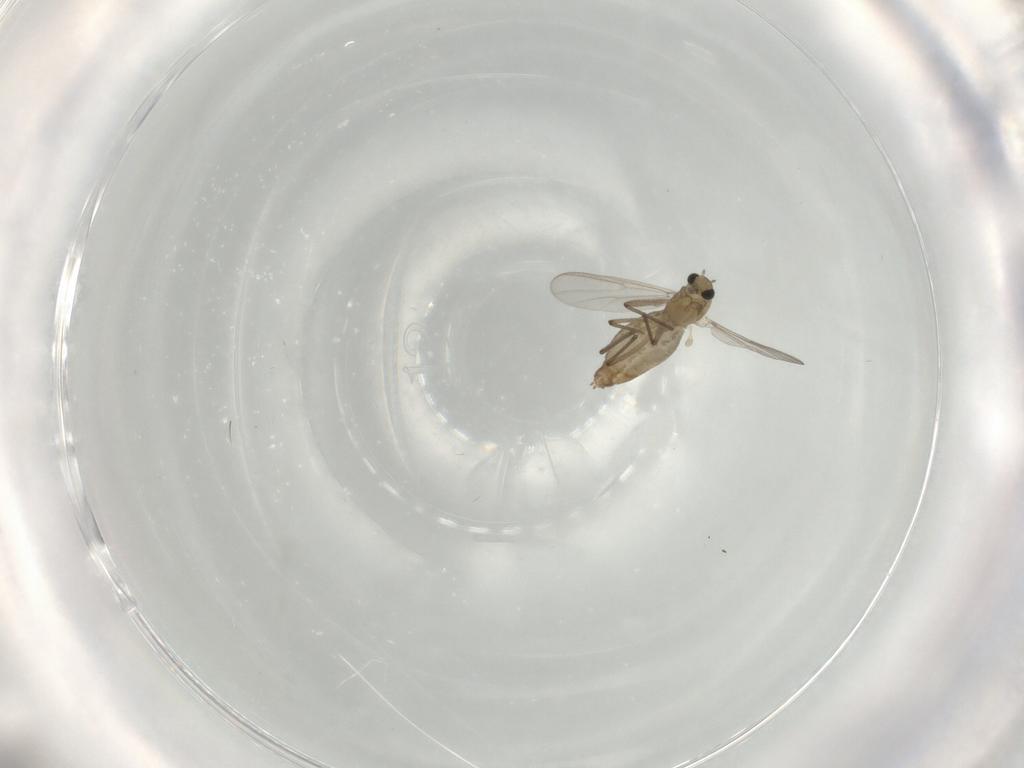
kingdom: Animalia
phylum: Arthropoda
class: Insecta
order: Diptera
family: Chironomidae
